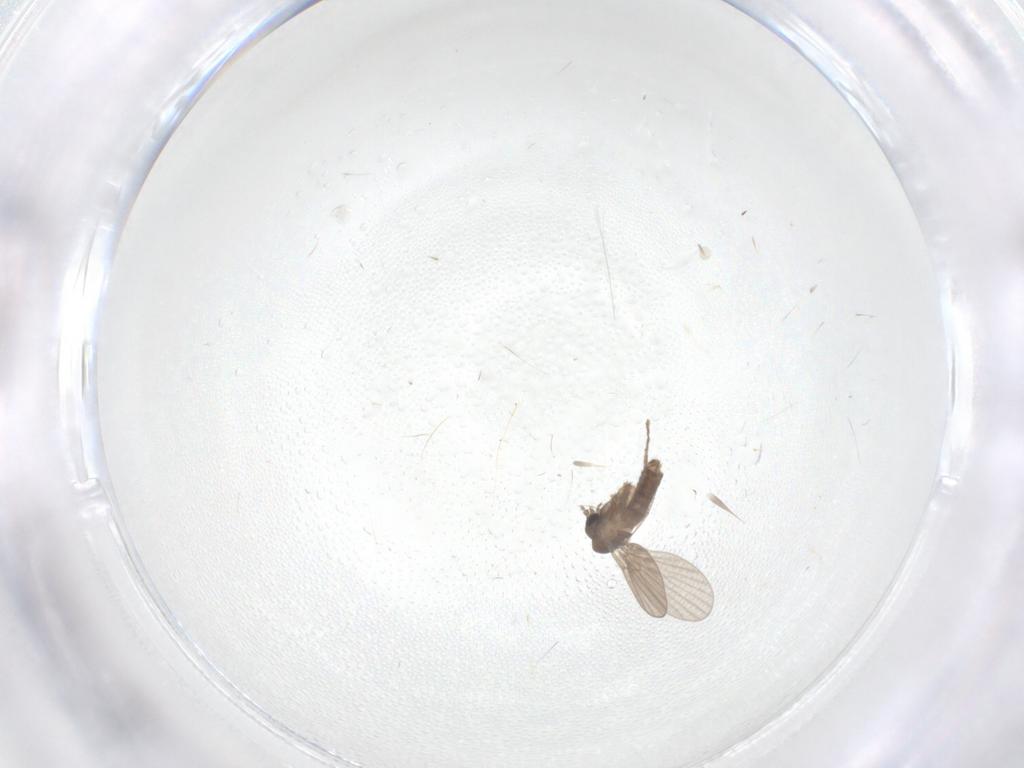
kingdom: Animalia
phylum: Arthropoda
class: Insecta
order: Diptera
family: Chironomidae
